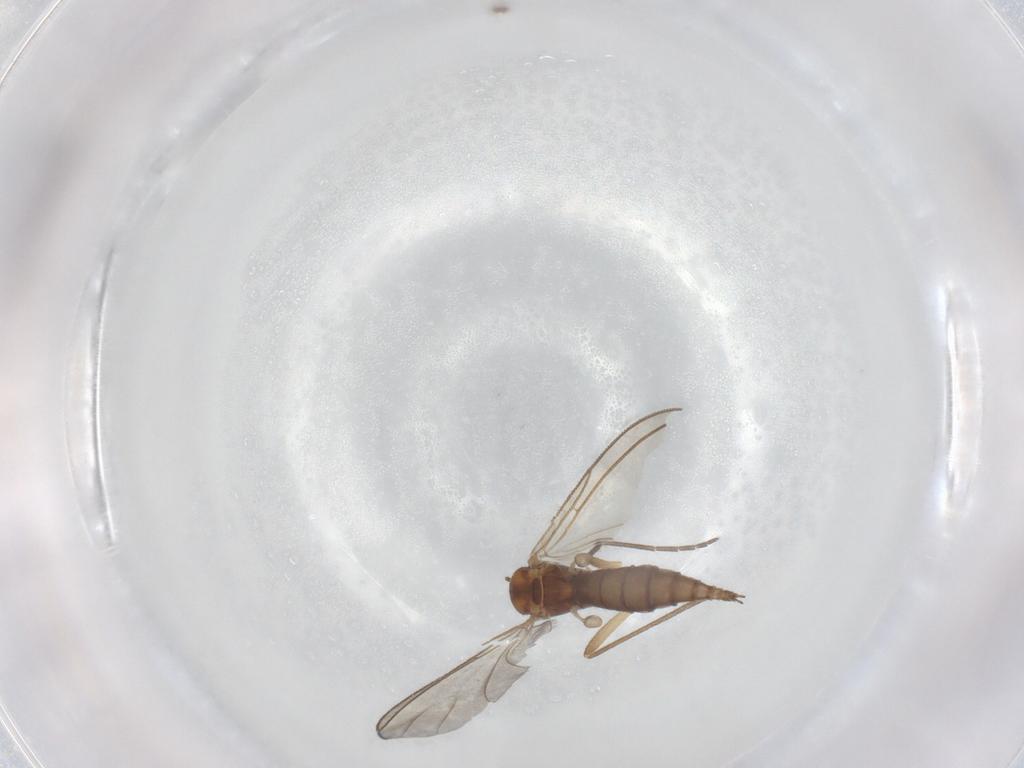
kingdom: Animalia
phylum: Arthropoda
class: Insecta
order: Diptera
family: Sciaridae
